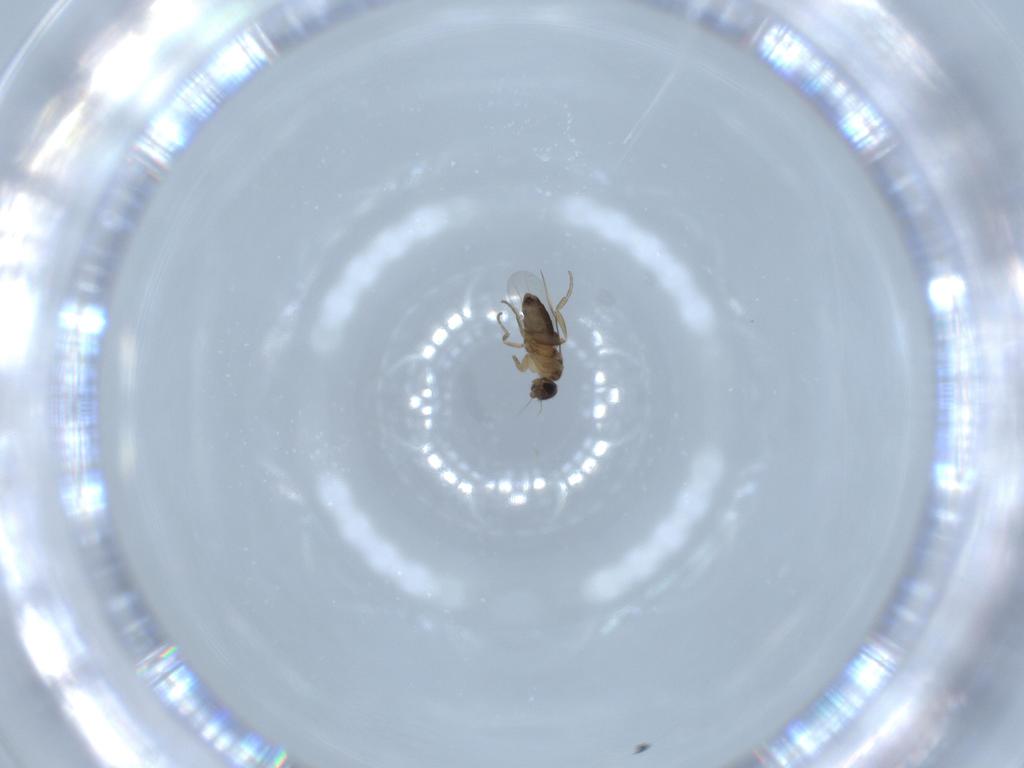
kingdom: Animalia
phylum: Arthropoda
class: Insecta
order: Diptera
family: Phoridae
